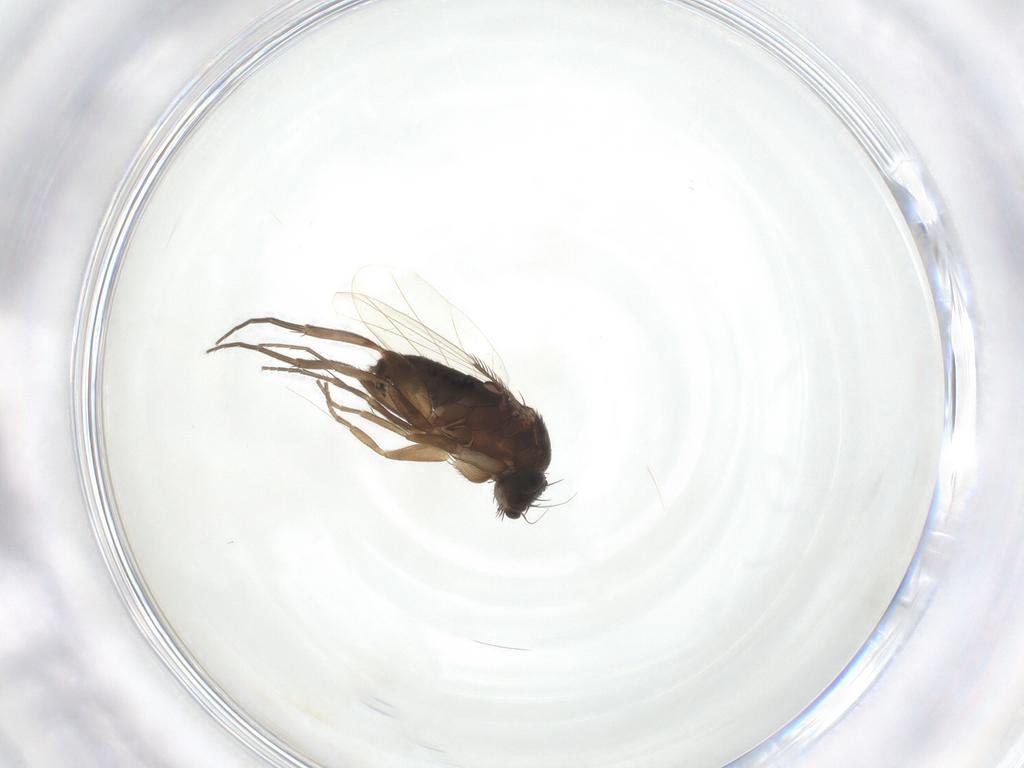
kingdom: Animalia
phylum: Arthropoda
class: Insecta
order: Diptera
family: Phoridae
